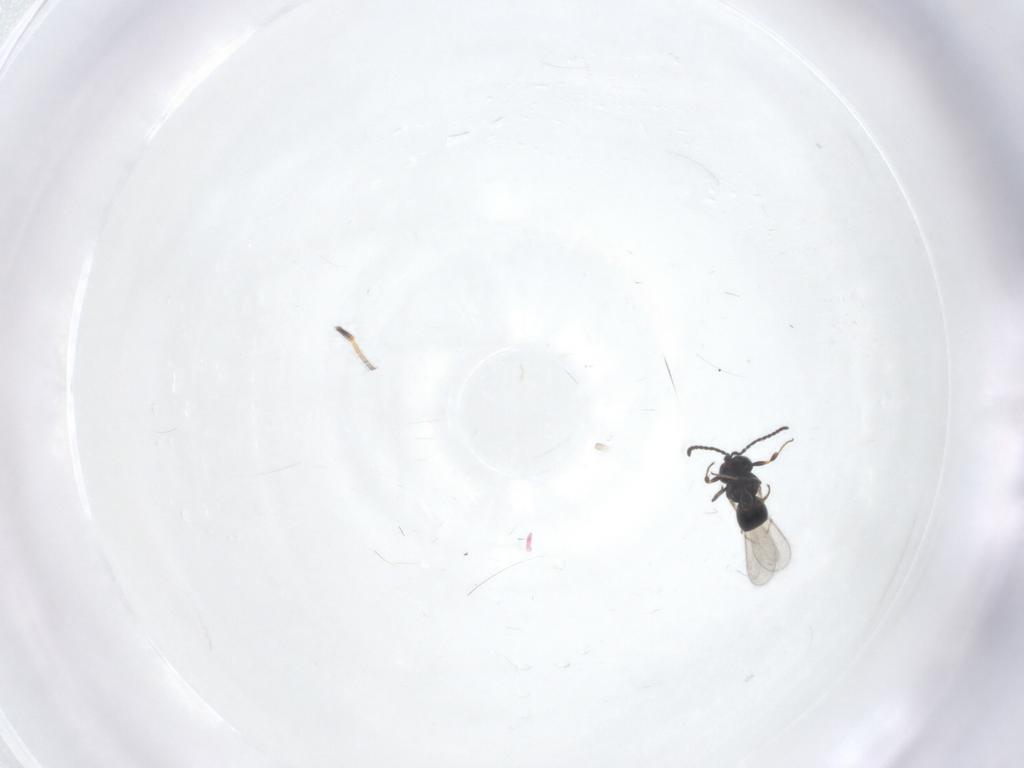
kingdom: Animalia
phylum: Arthropoda
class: Insecta
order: Hymenoptera
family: Scelionidae
